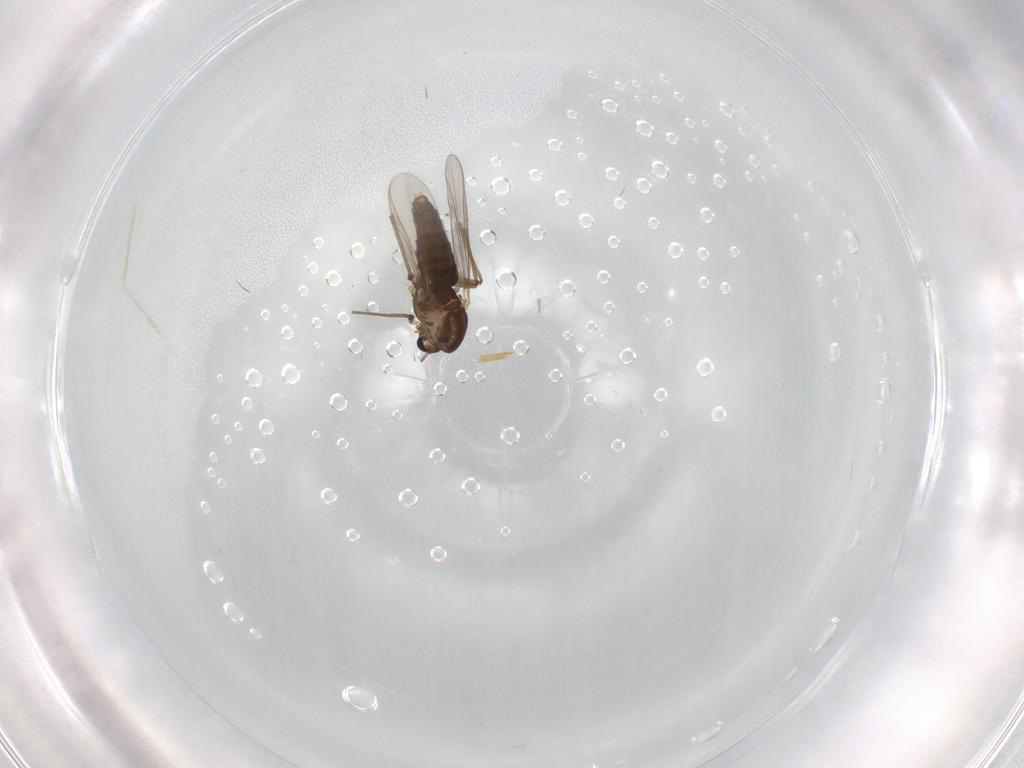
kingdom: Animalia
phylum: Arthropoda
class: Insecta
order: Diptera
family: Chironomidae
